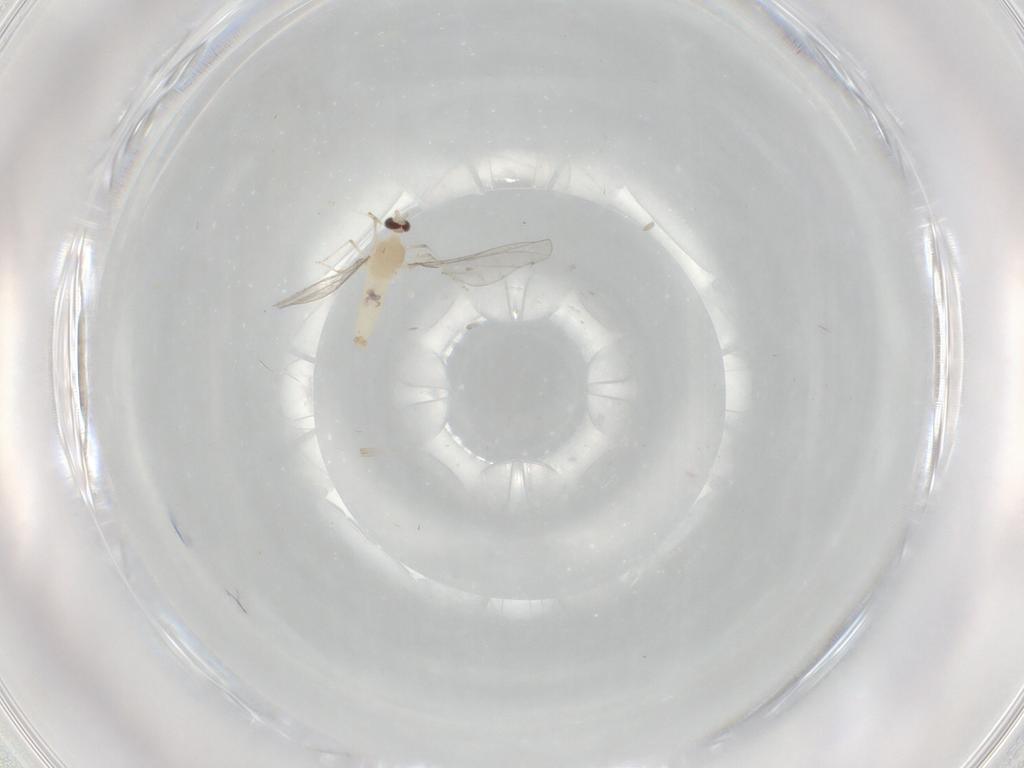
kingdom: Animalia
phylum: Arthropoda
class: Insecta
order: Diptera
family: Cecidomyiidae
